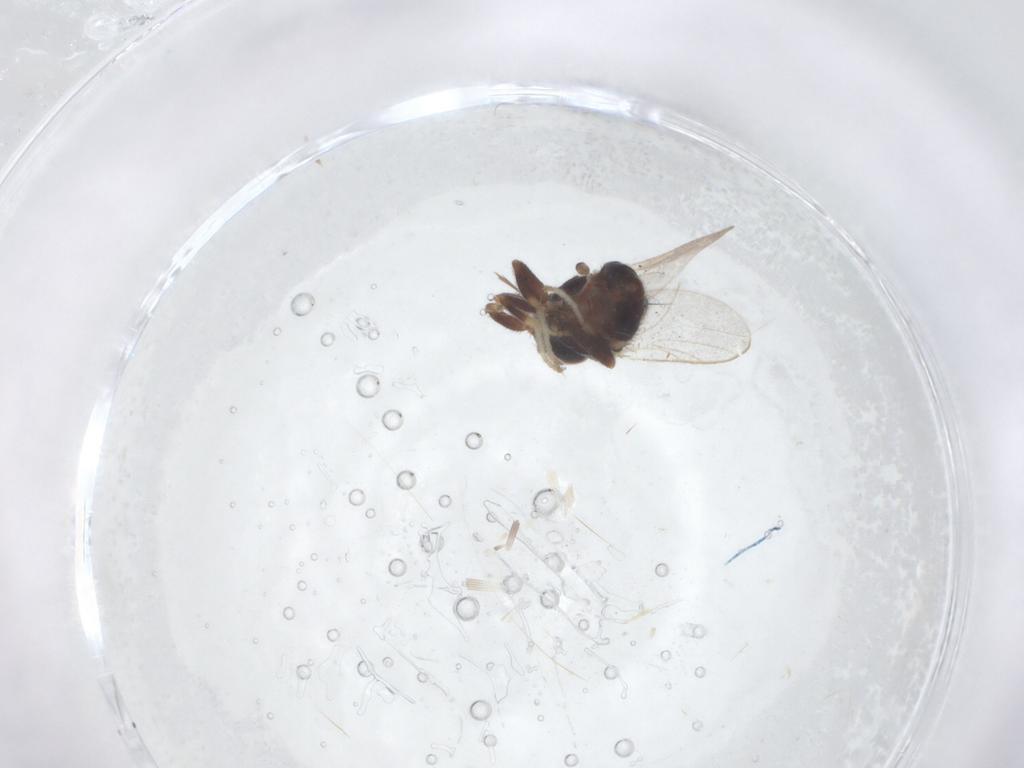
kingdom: Animalia
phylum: Arthropoda
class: Insecta
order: Diptera
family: Chloropidae
